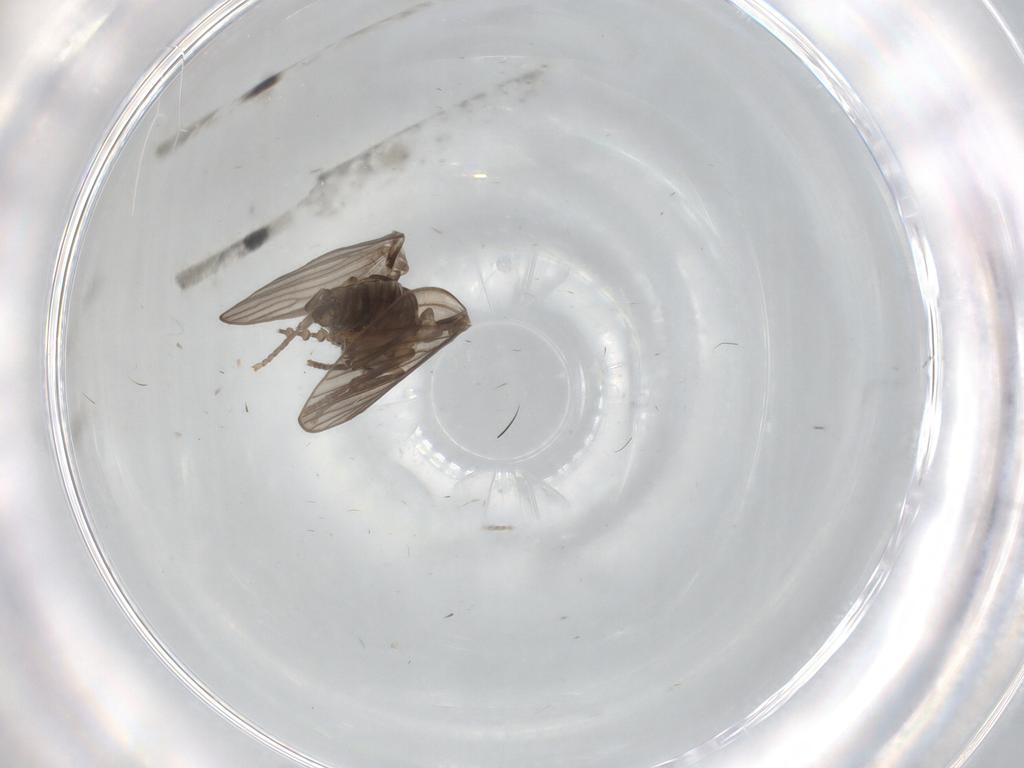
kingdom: Animalia
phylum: Arthropoda
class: Insecta
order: Diptera
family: Psychodidae
